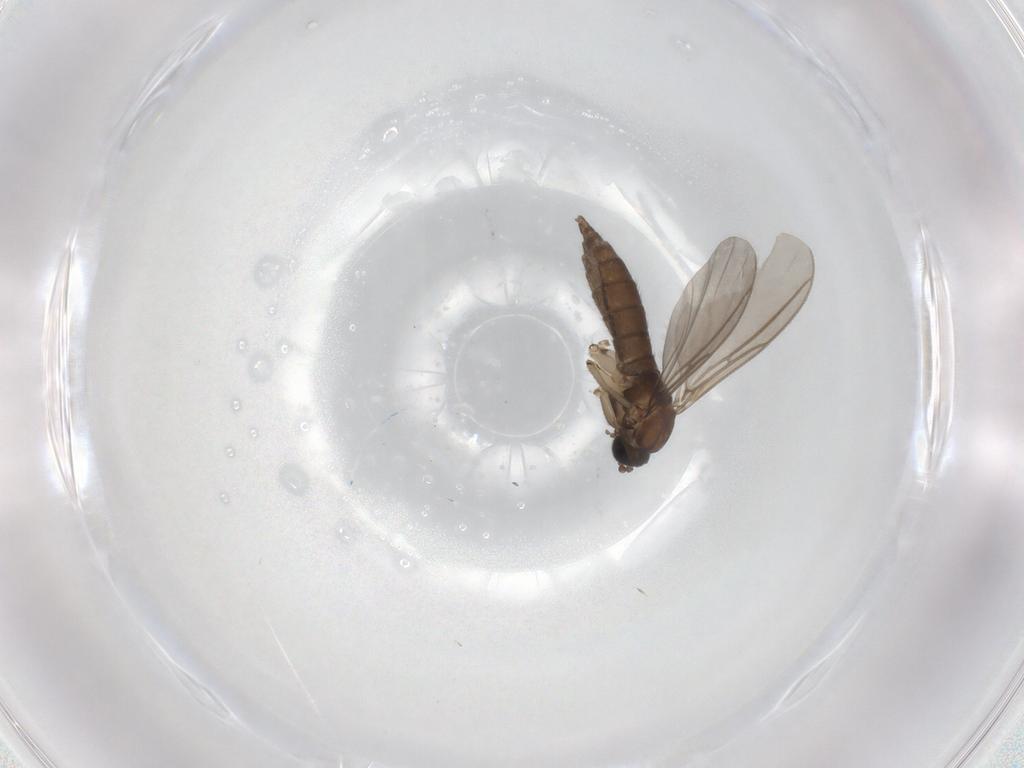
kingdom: Animalia
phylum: Arthropoda
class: Insecta
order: Diptera
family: Sciaridae
